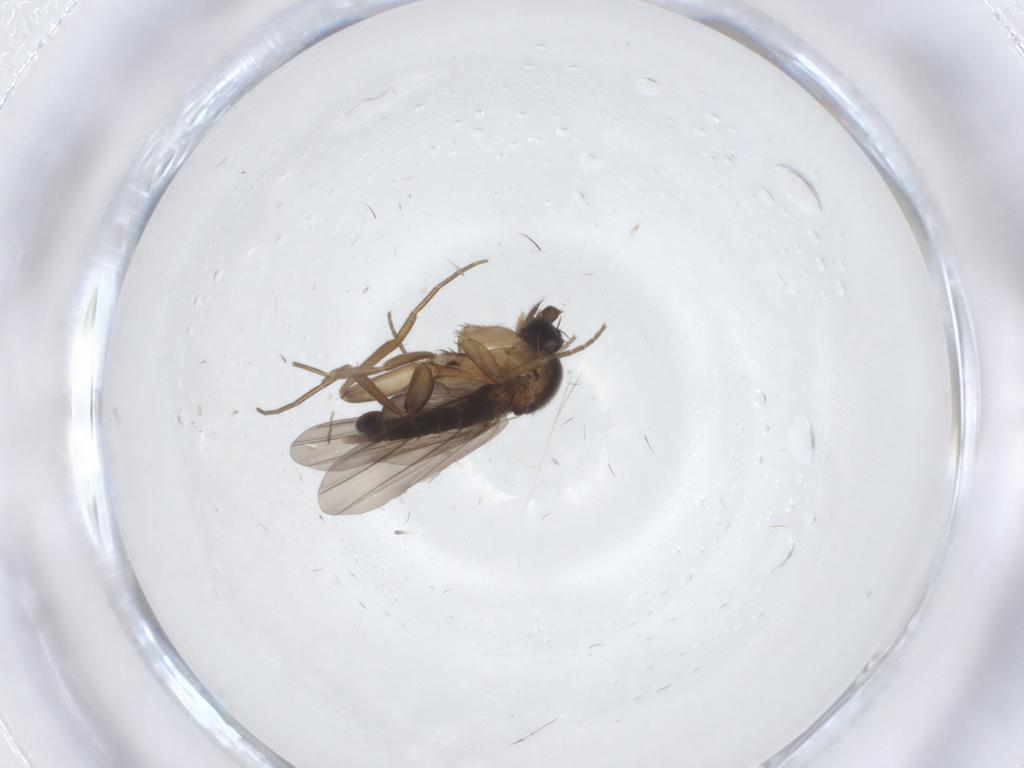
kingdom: Animalia
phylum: Arthropoda
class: Insecta
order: Diptera
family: Phoridae
